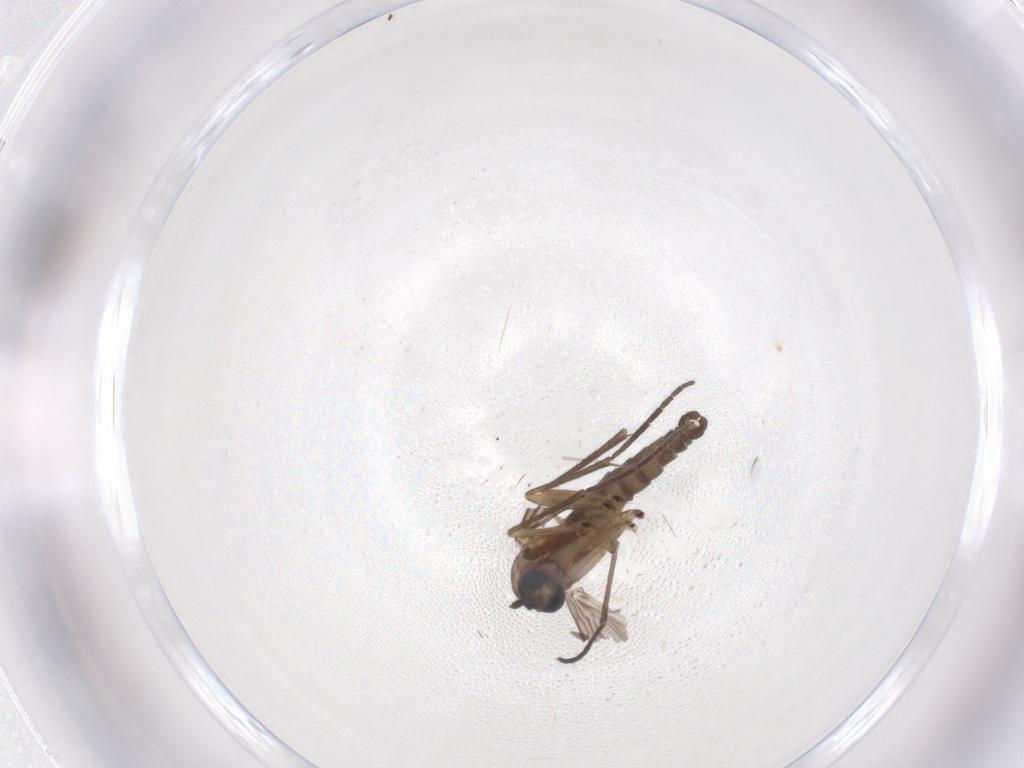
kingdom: Animalia
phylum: Arthropoda
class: Insecta
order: Diptera
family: Sciaridae
